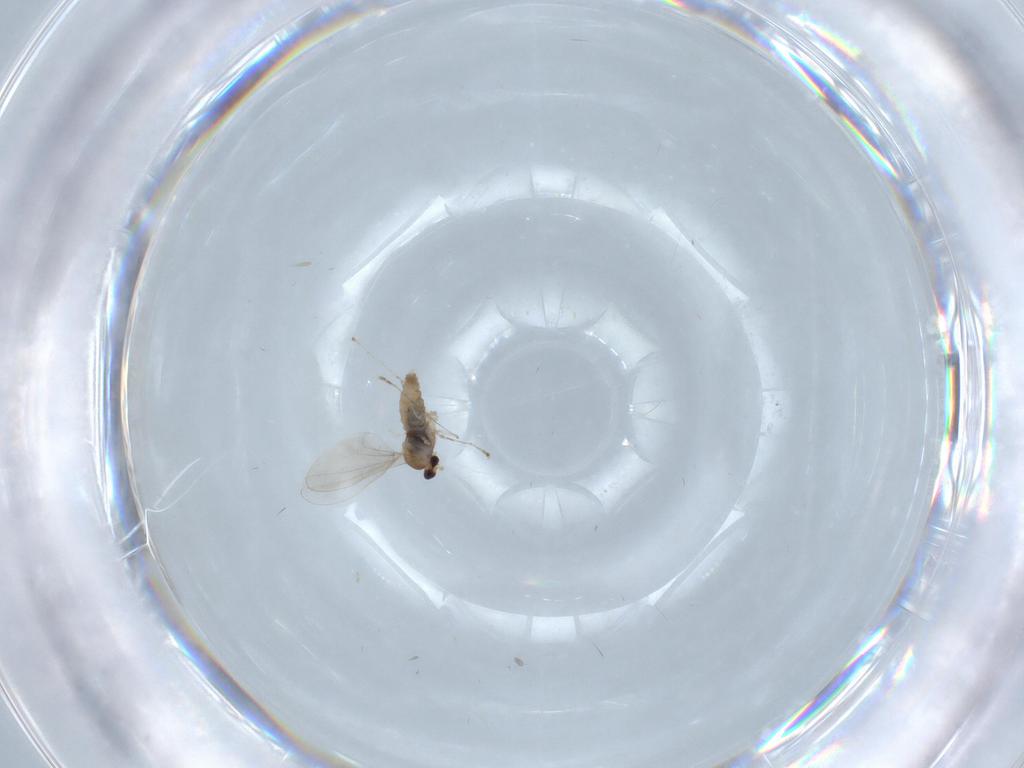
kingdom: Animalia
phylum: Arthropoda
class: Insecta
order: Diptera
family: Cecidomyiidae
